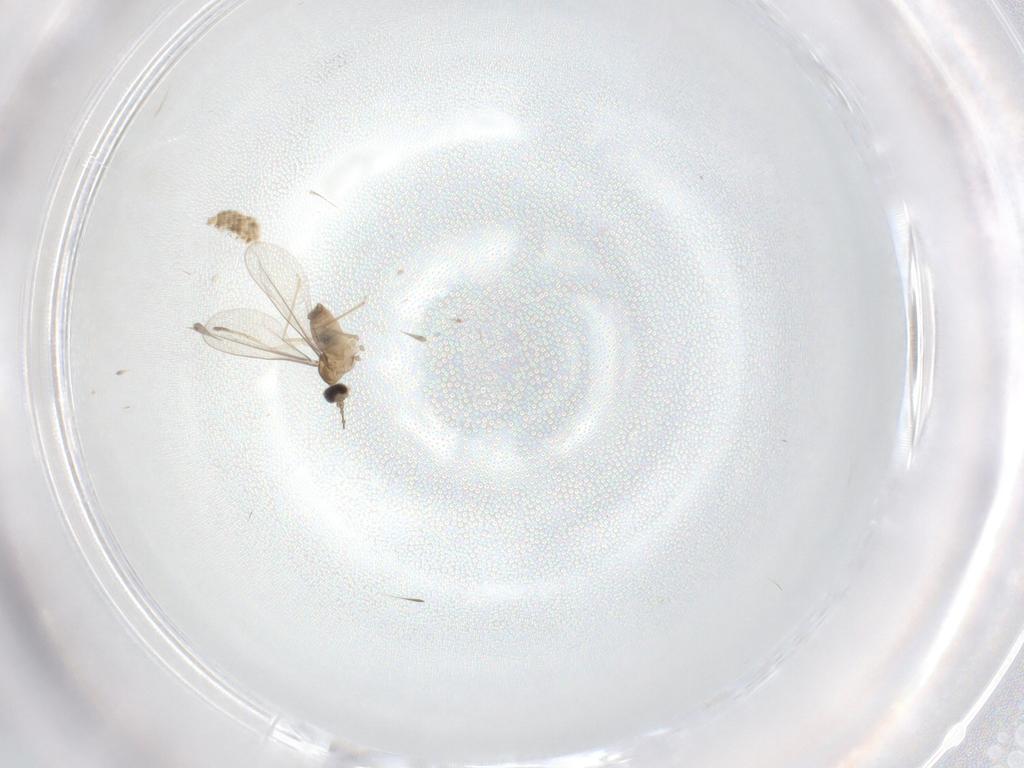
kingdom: Animalia
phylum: Arthropoda
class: Insecta
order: Diptera
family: Cecidomyiidae
